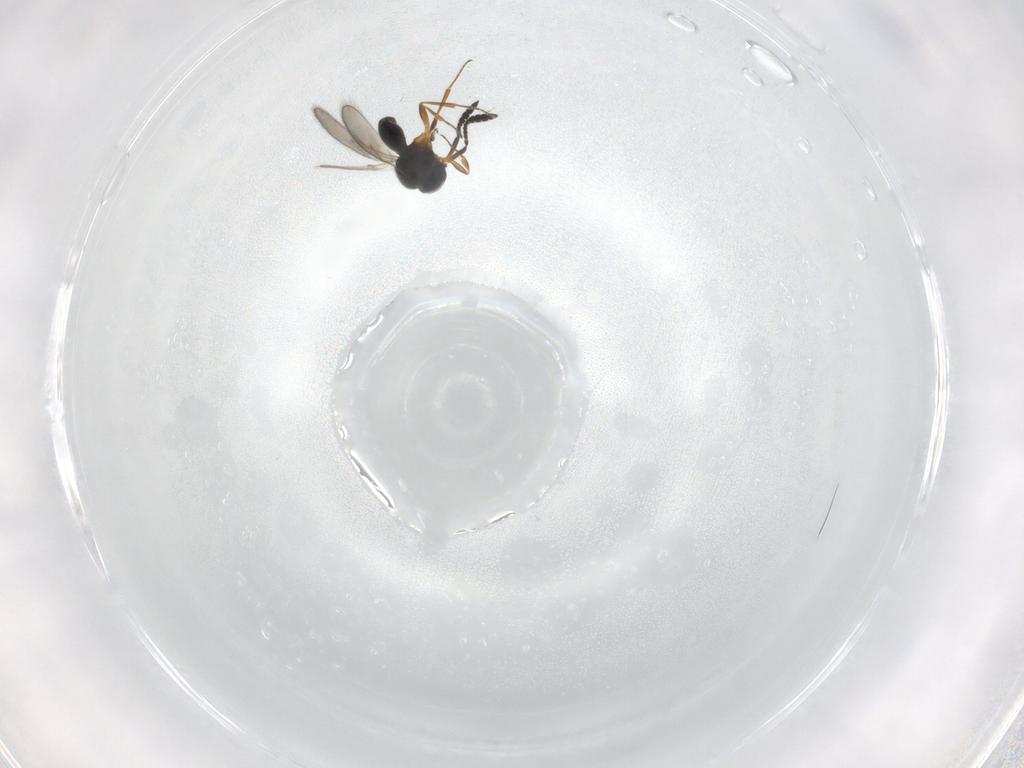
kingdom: Animalia
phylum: Arthropoda
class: Insecta
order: Hymenoptera
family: Scelionidae
